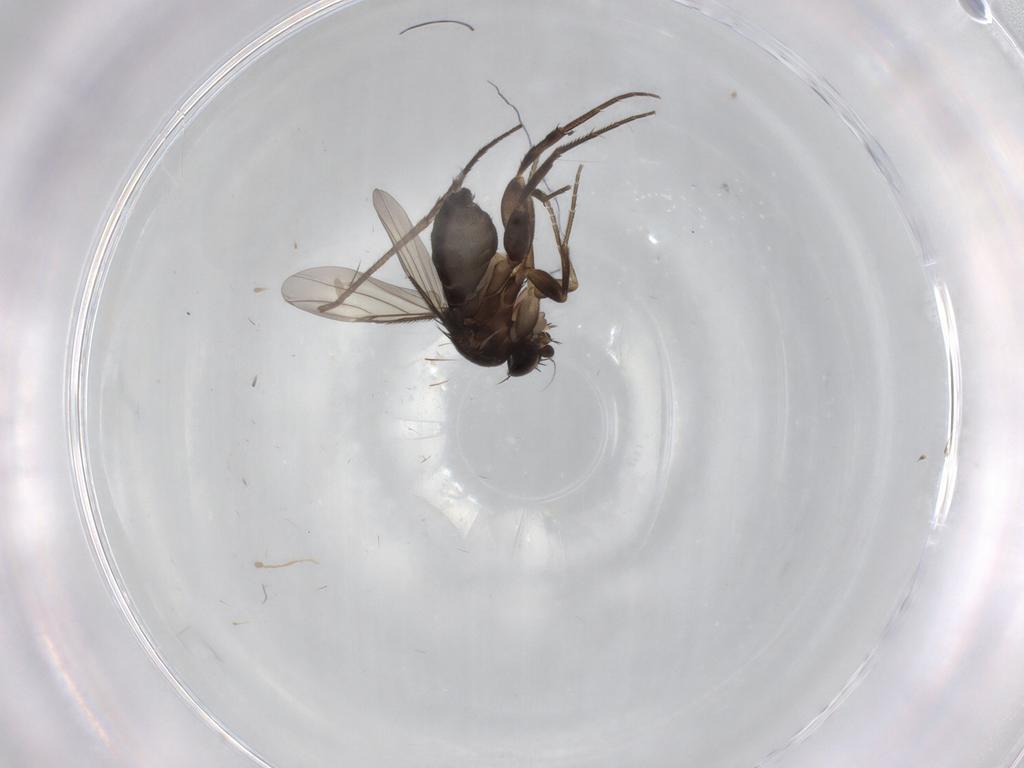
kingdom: Animalia
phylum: Arthropoda
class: Insecta
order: Diptera
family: Phoridae
